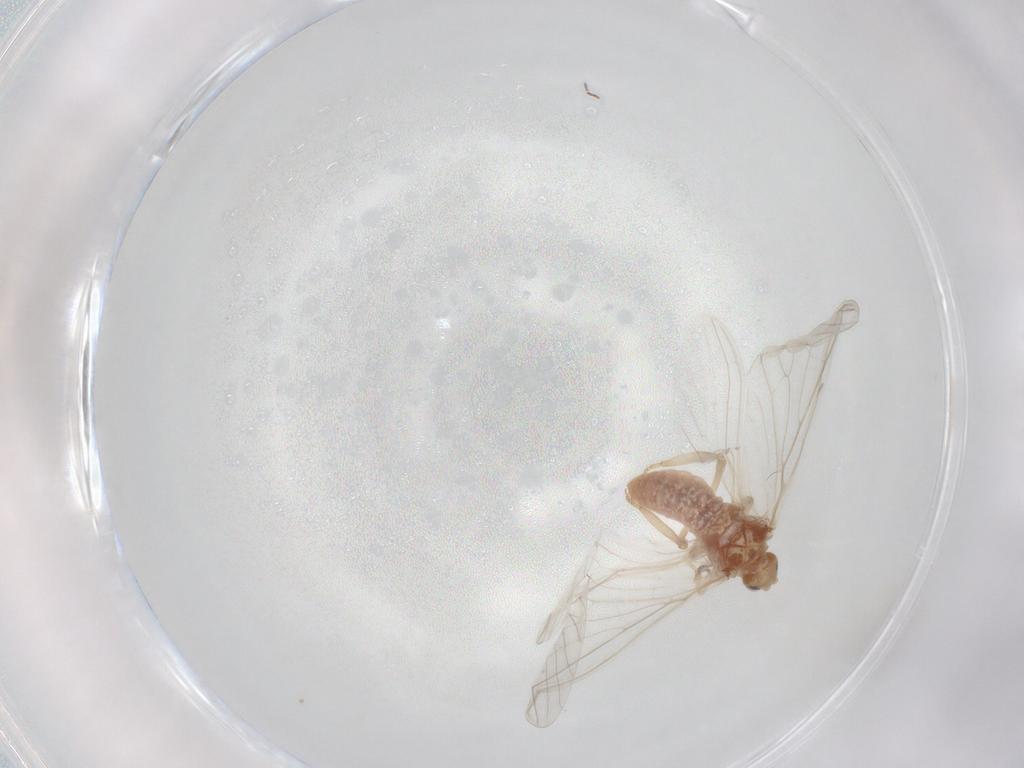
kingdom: Animalia
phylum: Arthropoda
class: Insecta
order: Neuroptera
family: Coniopterygidae
